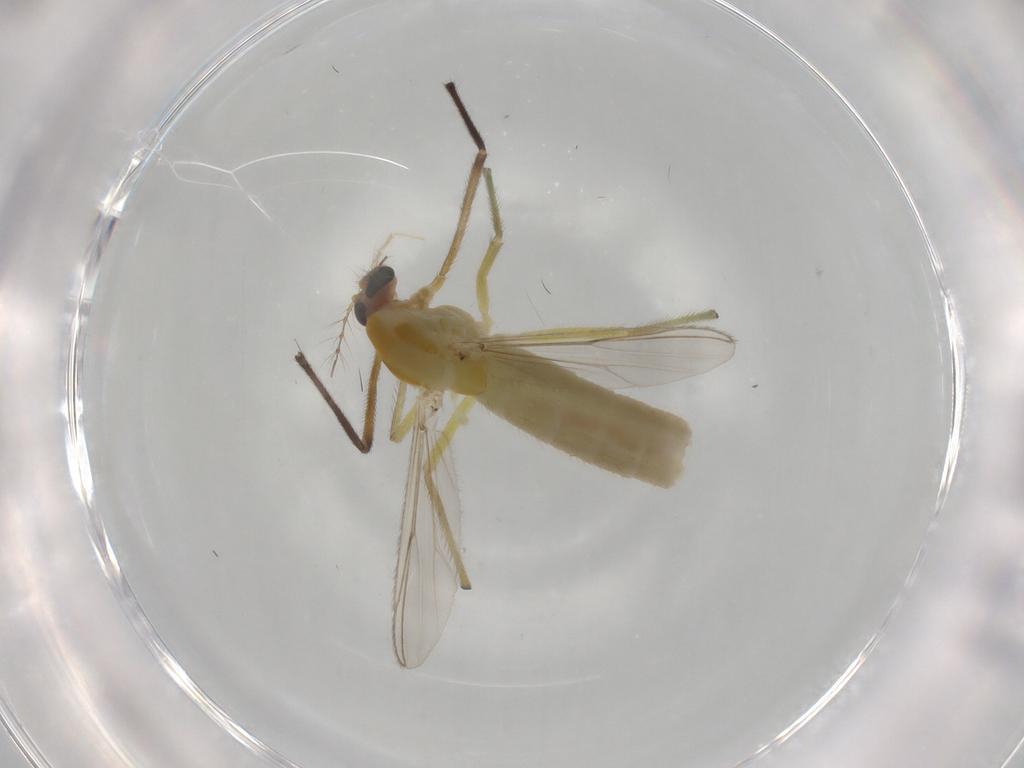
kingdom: Animalia
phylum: Arthropoda
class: Insecta
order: Diptera
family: Chironomidae
